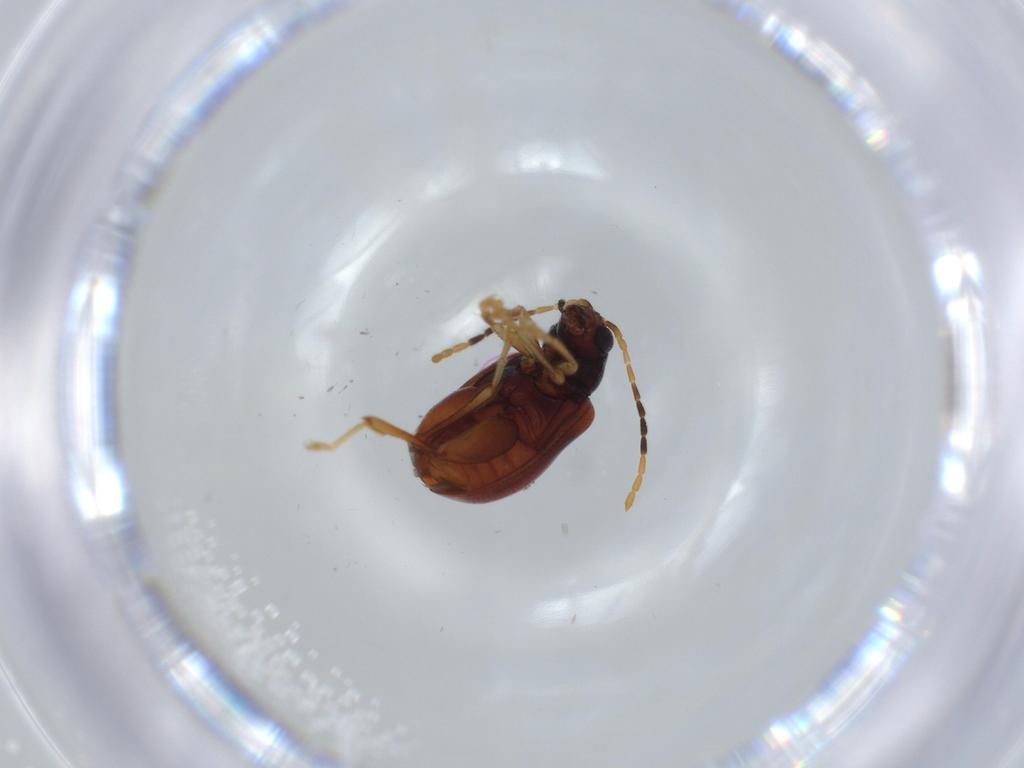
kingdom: Animalia
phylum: Arthropoda
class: Insecta
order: Coleoptera
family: Chrysomelidae
